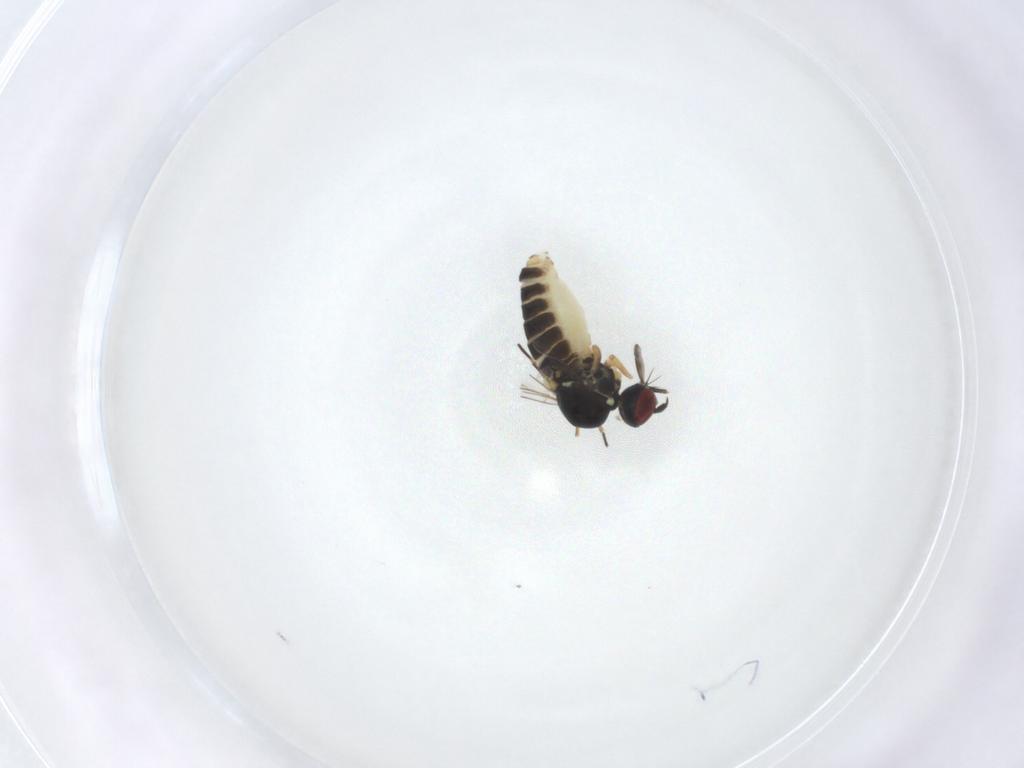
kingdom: Animalia
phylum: Arthropoda
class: Insecta
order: Diptera
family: Mythicomyiidae
